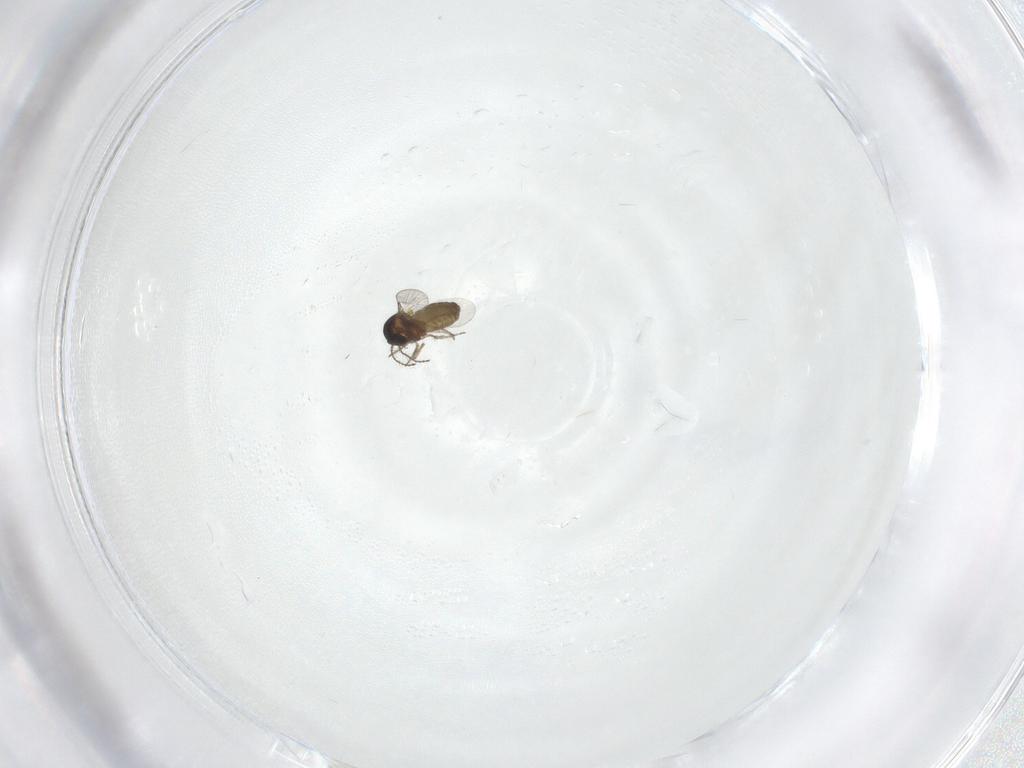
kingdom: Animalia
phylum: Arthropoda
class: Insecta
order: Diptera
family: Ceratopogonidae
